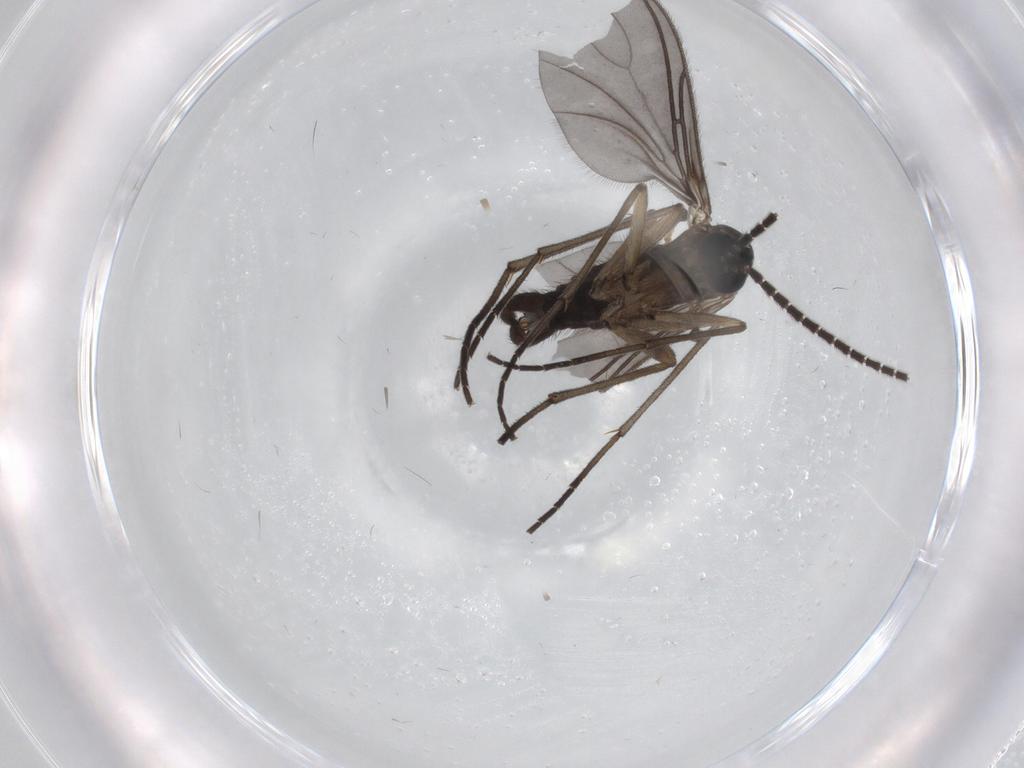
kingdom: Animalia
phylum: Arthropoda
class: Insecta
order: Diptera
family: Sciaridae
